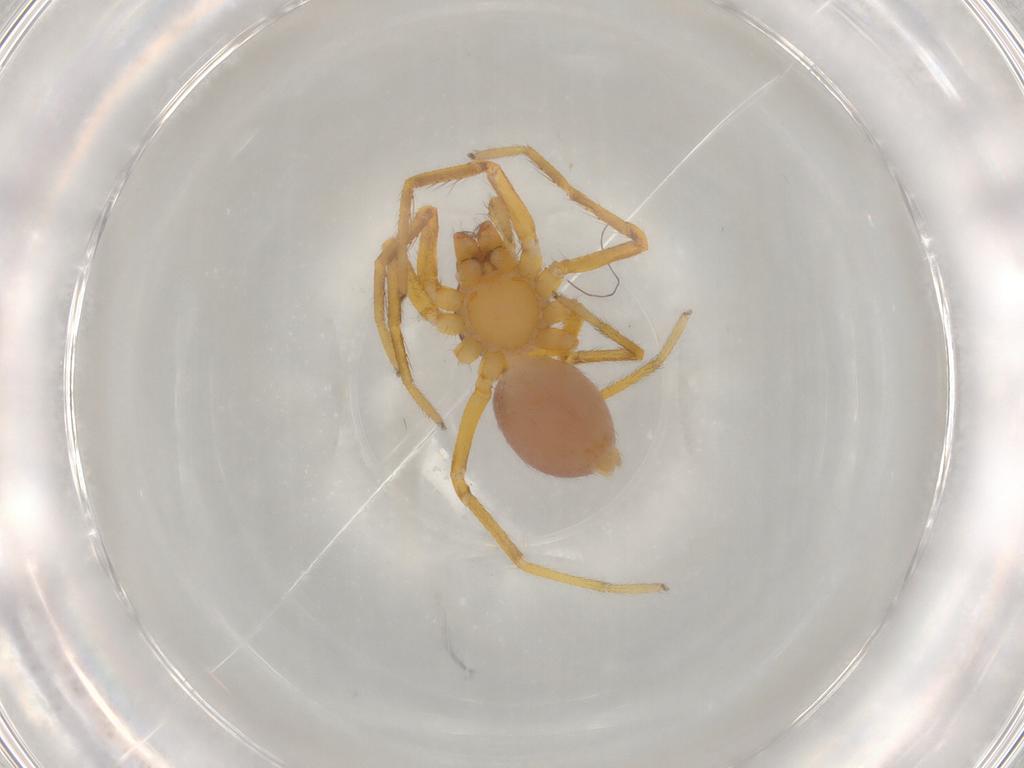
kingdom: Animalia
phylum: Arthropoda
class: Arachnida
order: Araneae
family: Corinnidae
